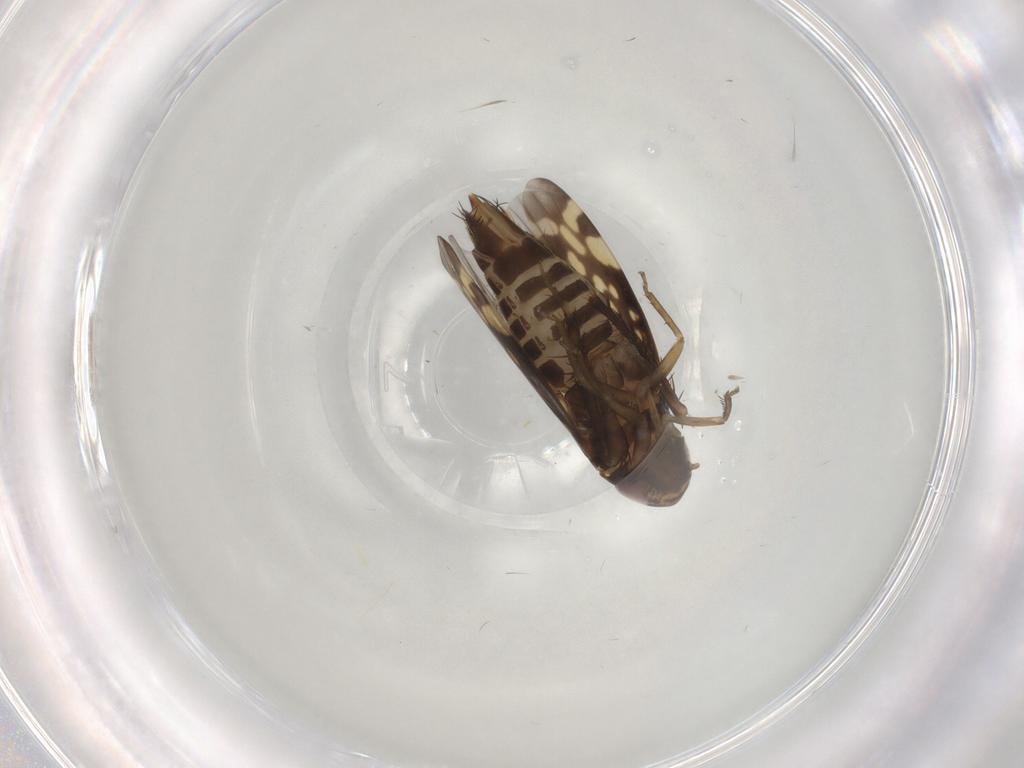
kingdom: Animalia
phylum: Arthropoda
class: Insecta
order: Hemiptera
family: Cicadellidae
